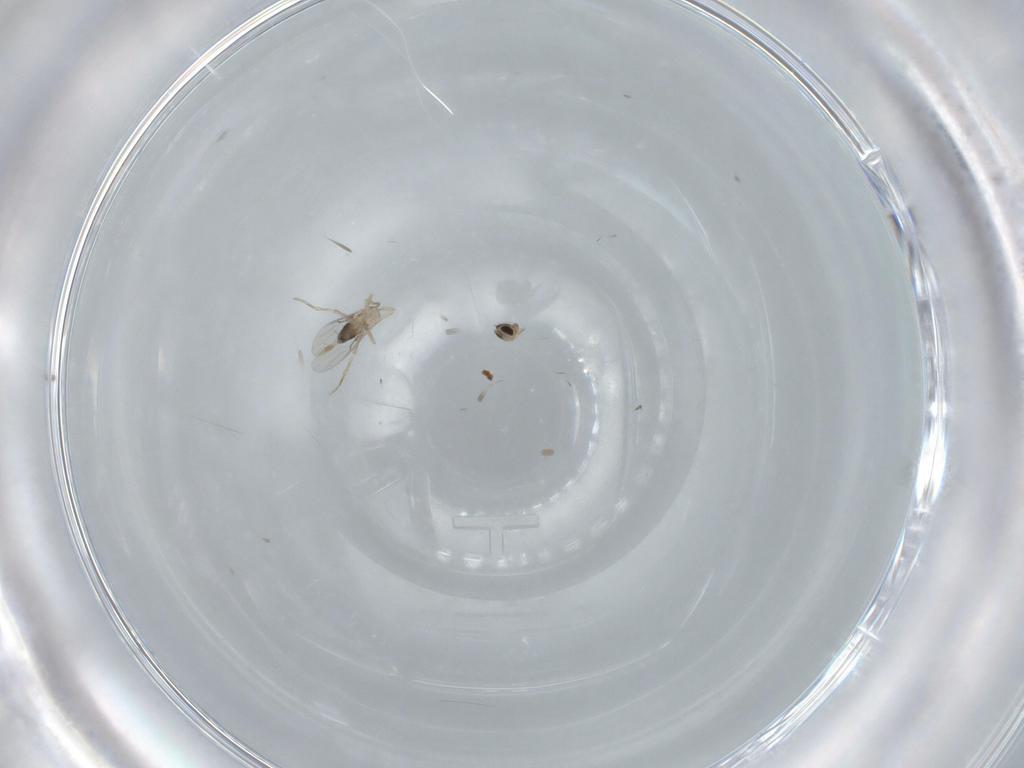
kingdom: Animalia
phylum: Arthropoda
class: Insecta
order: Diptera
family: Phoridae
